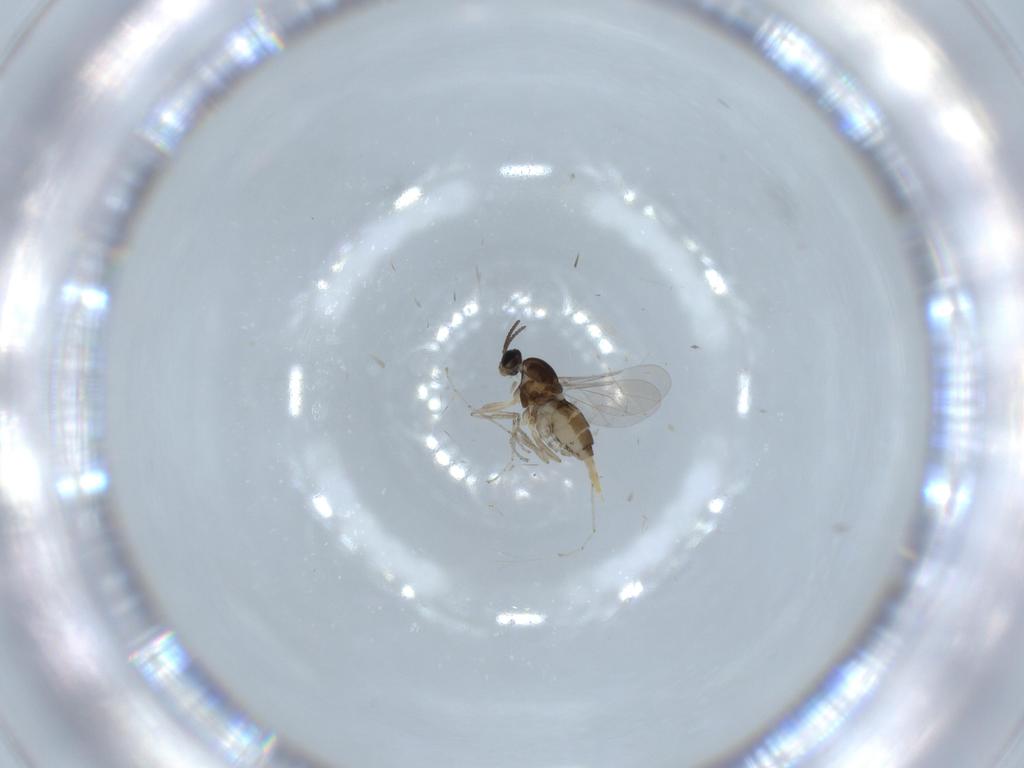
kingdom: Animalia
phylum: Arthropoda
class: Insecta
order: Diptera
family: Cecidomyiidae
